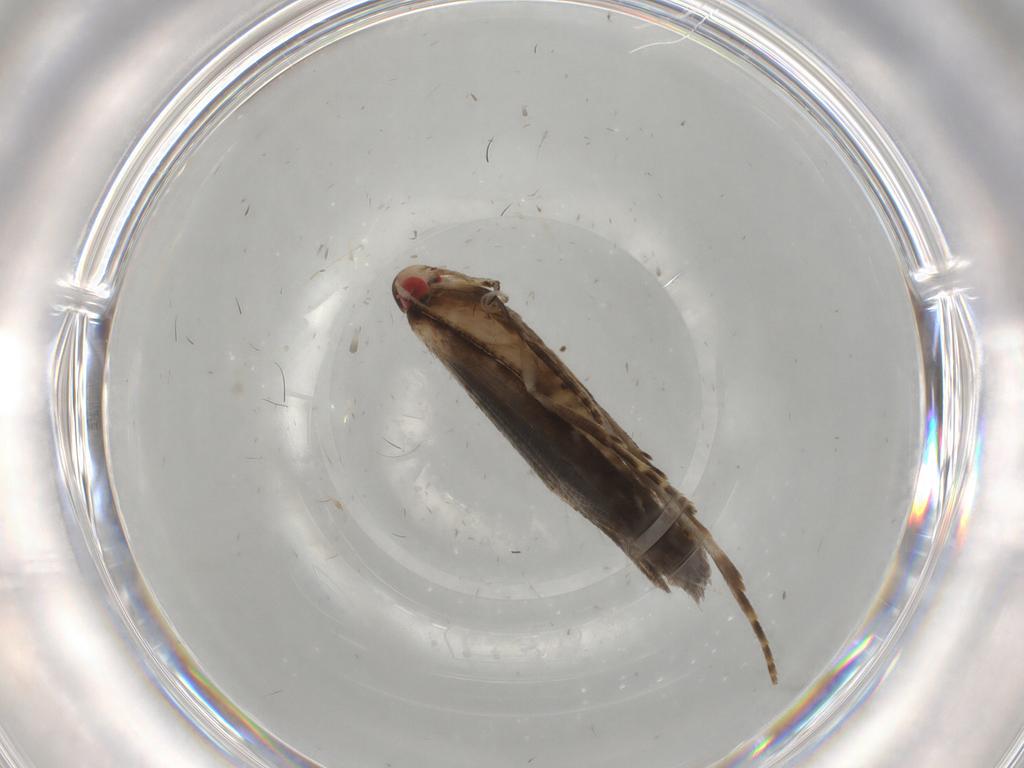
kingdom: Animalia
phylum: Arthropoda
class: Insecta
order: Lepidoptera
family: Gelechiidae
